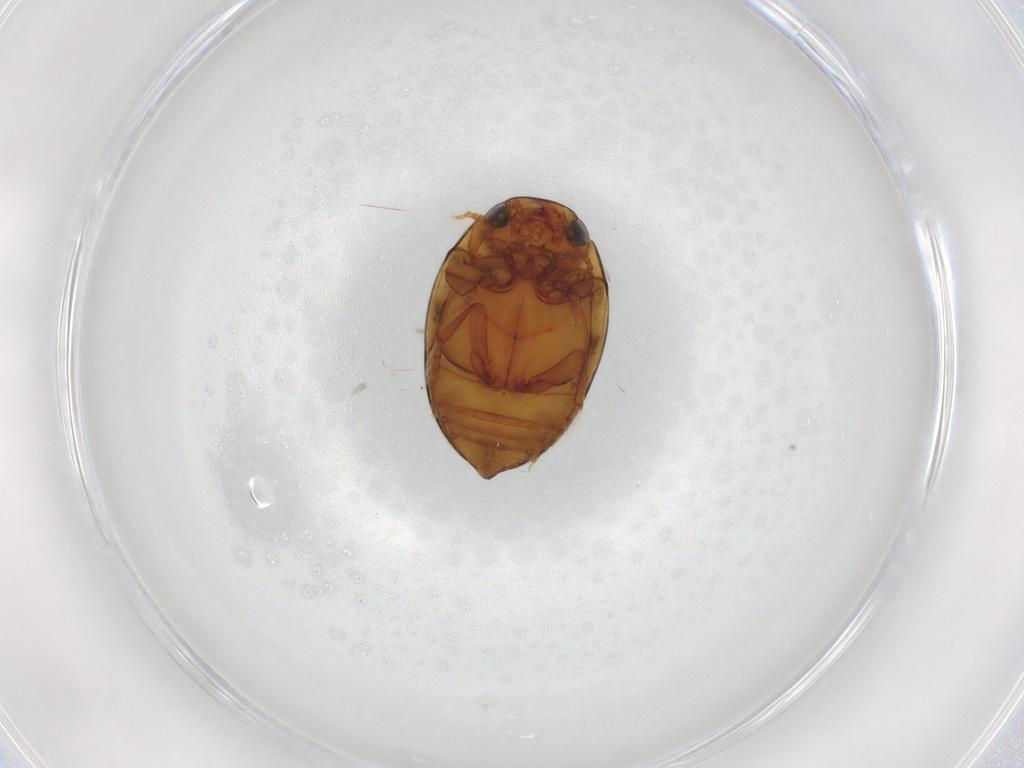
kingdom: Animalia
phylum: Arthropoda
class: Insecta
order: Coleoptera
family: Dytiscidae
